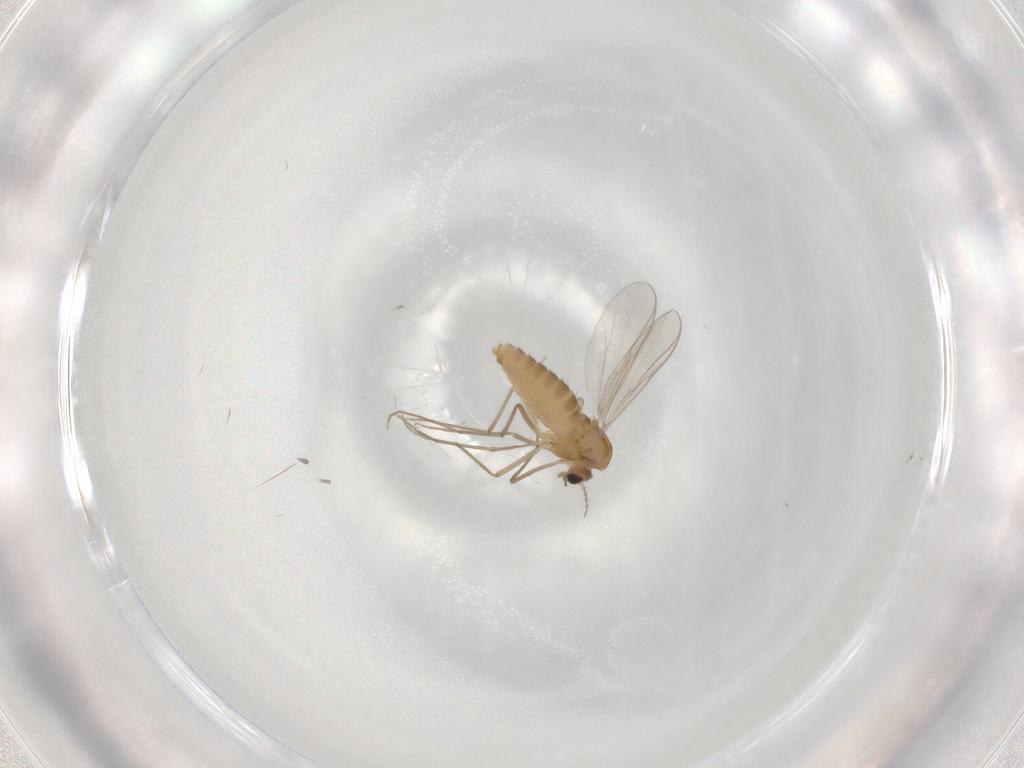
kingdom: Animalia
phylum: Arthropoda
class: Insecta
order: Diptera
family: Chironomidae
